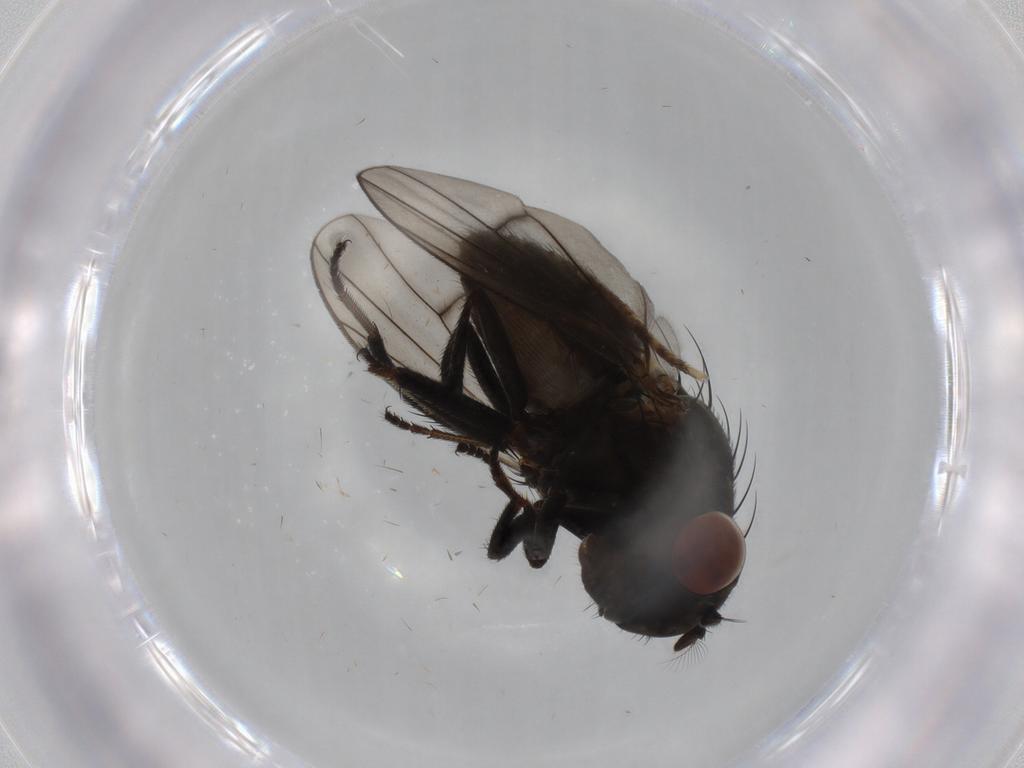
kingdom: Animalia
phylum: Arthropoda
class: Insecta
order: Diptera
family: Ephydridae
